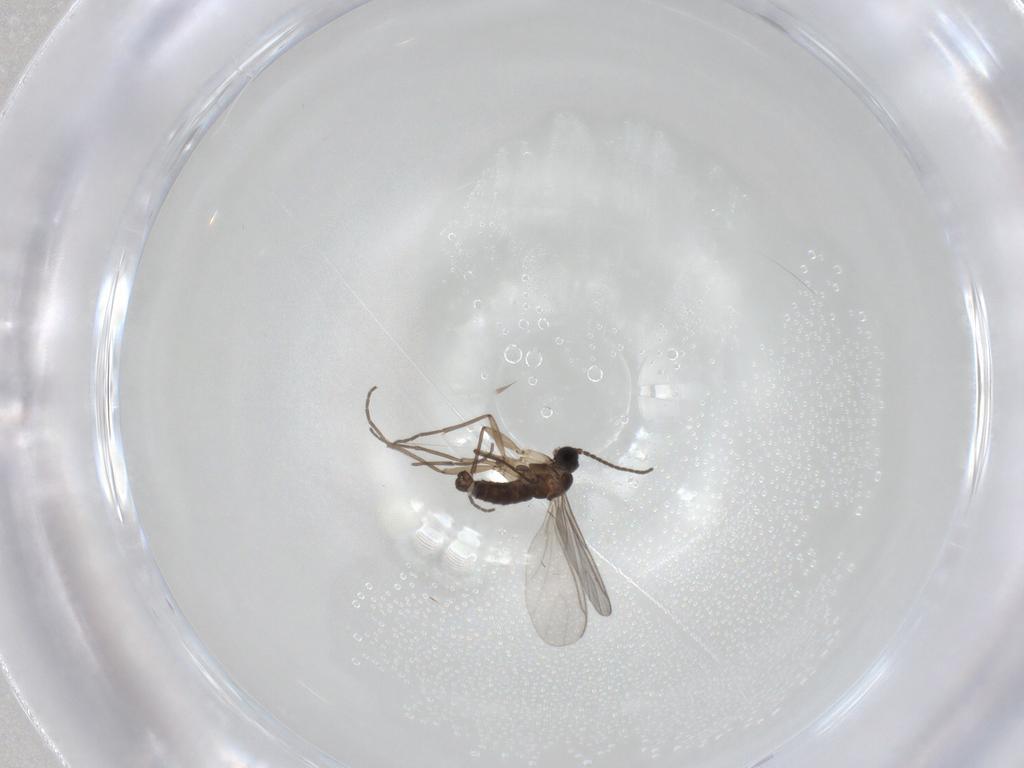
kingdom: Animalia
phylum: Arthropoda
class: Insecta
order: Diptera
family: Sciaridae
